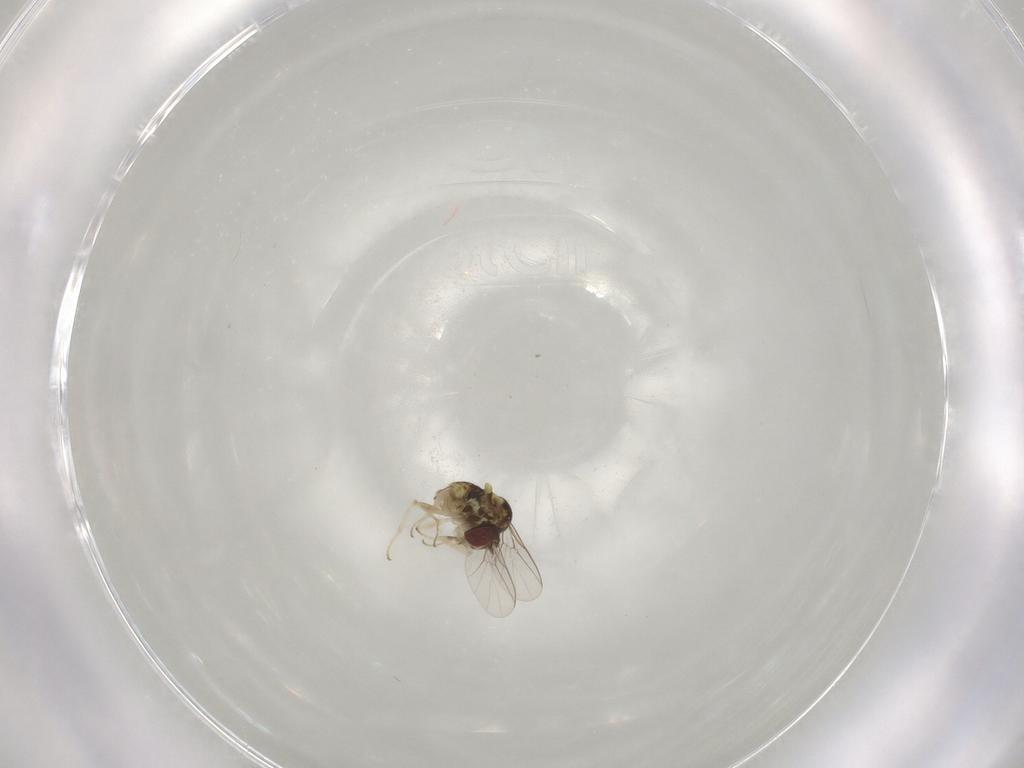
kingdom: Animalia
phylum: Arthropoda
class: Insecta
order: Diptera
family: Bombyliidae
